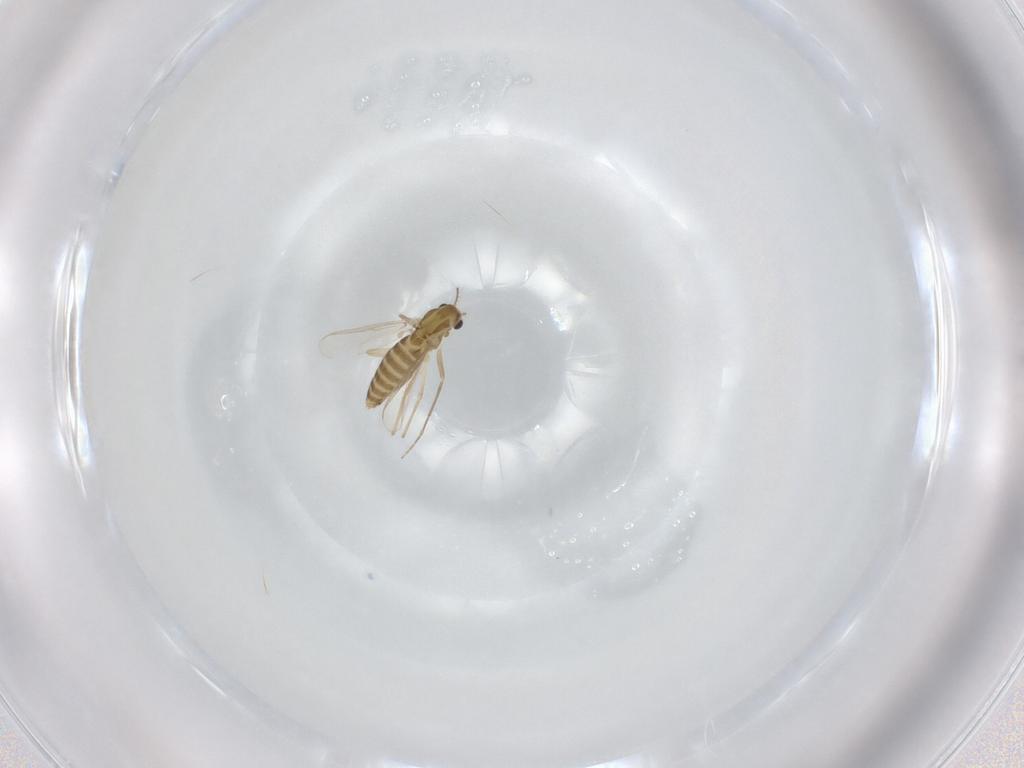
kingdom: Animalia
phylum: Arthropoda
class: Insecta
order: Diptera
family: Chironomidae
